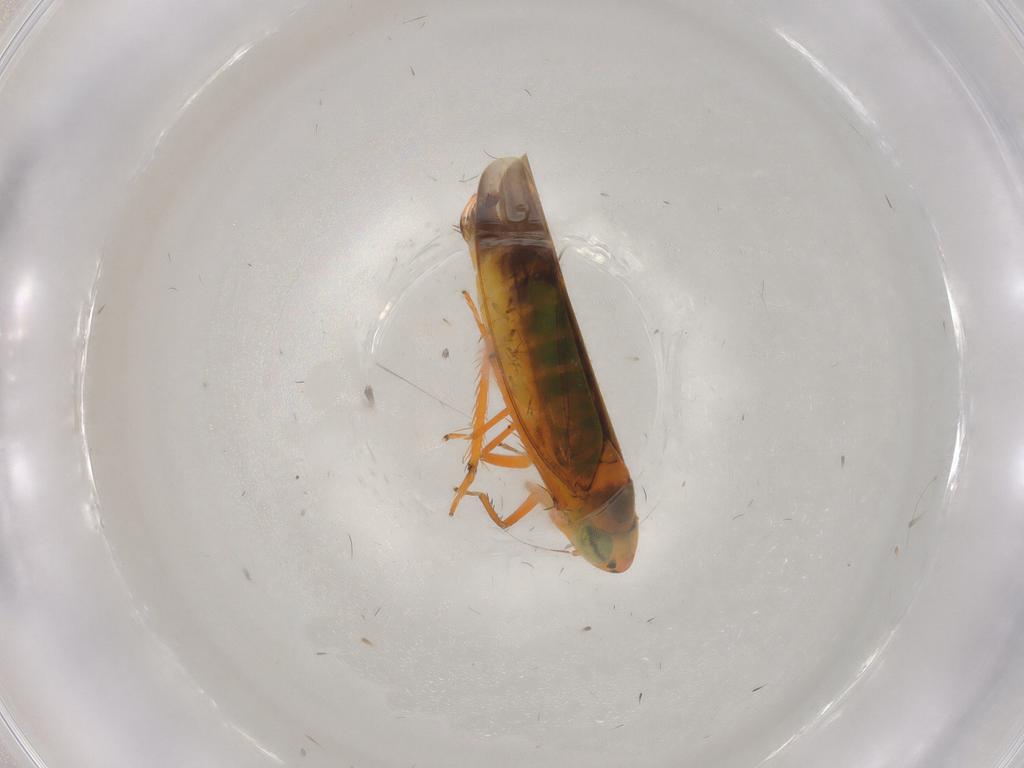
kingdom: Animalia
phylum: Arthropoda
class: Insecta
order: Hemiptera
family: Cicadellidae
